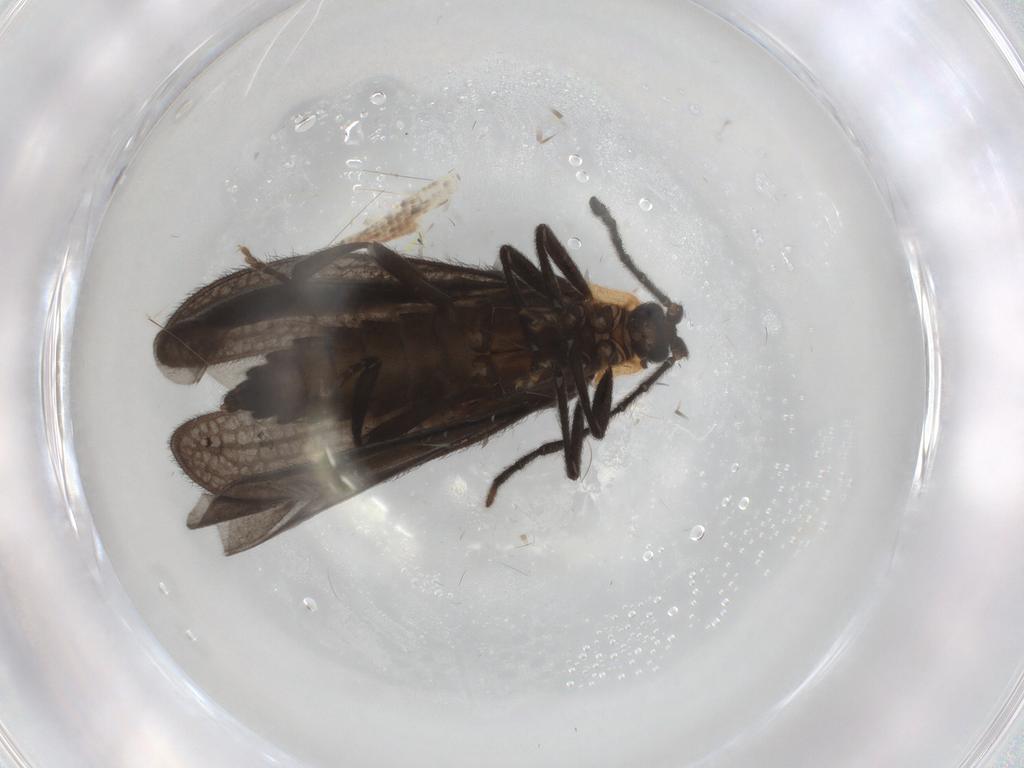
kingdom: Animalia
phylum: Arthropoda
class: Insecta
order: Coleoptera
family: Lycidae
